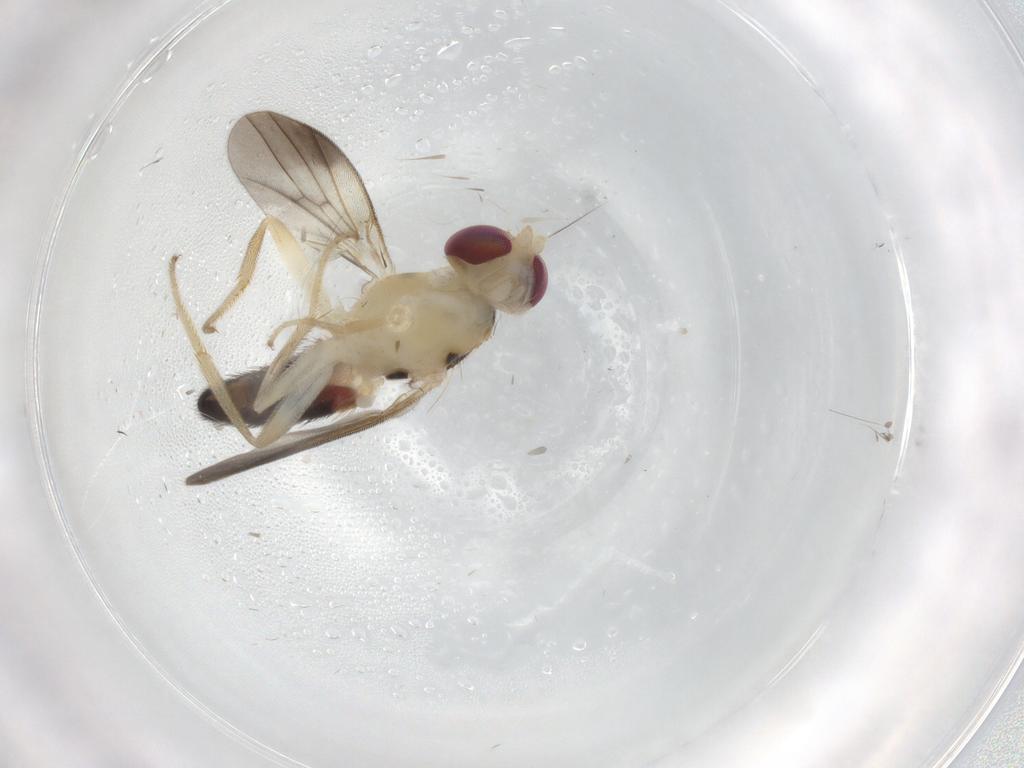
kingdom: Animalia
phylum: Arthropoda
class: Insecta
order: Diptera
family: Clusiidae
